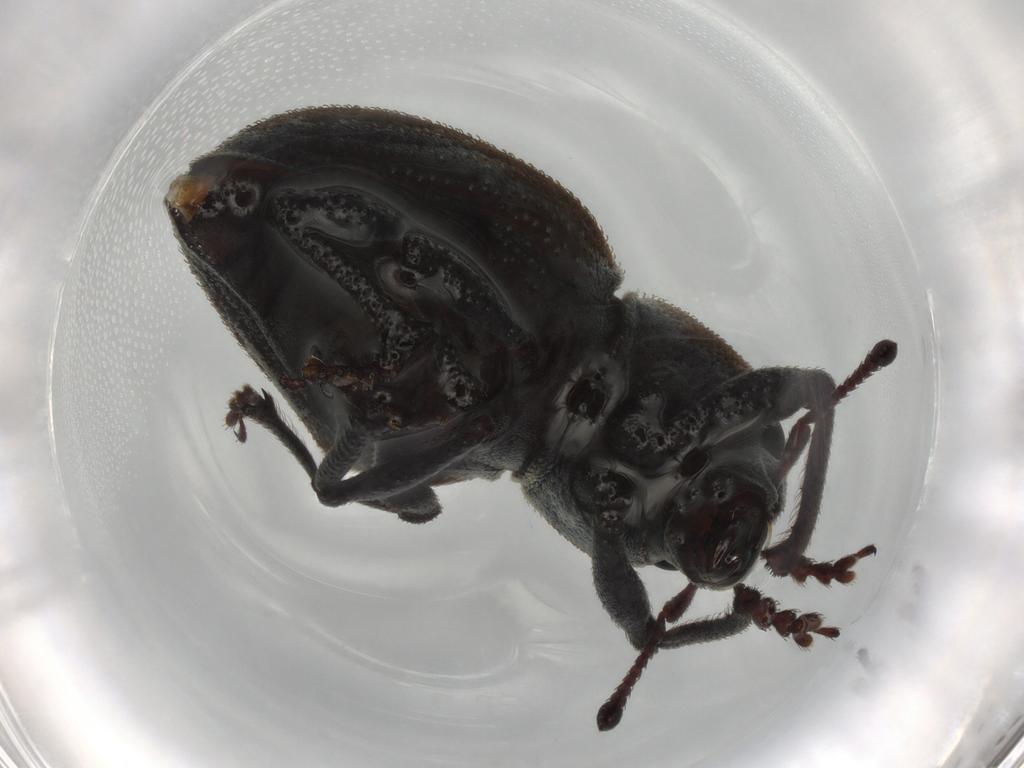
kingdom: Animalia
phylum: Arthropoda
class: Insecta
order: Coleoptera
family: Curculionidae
